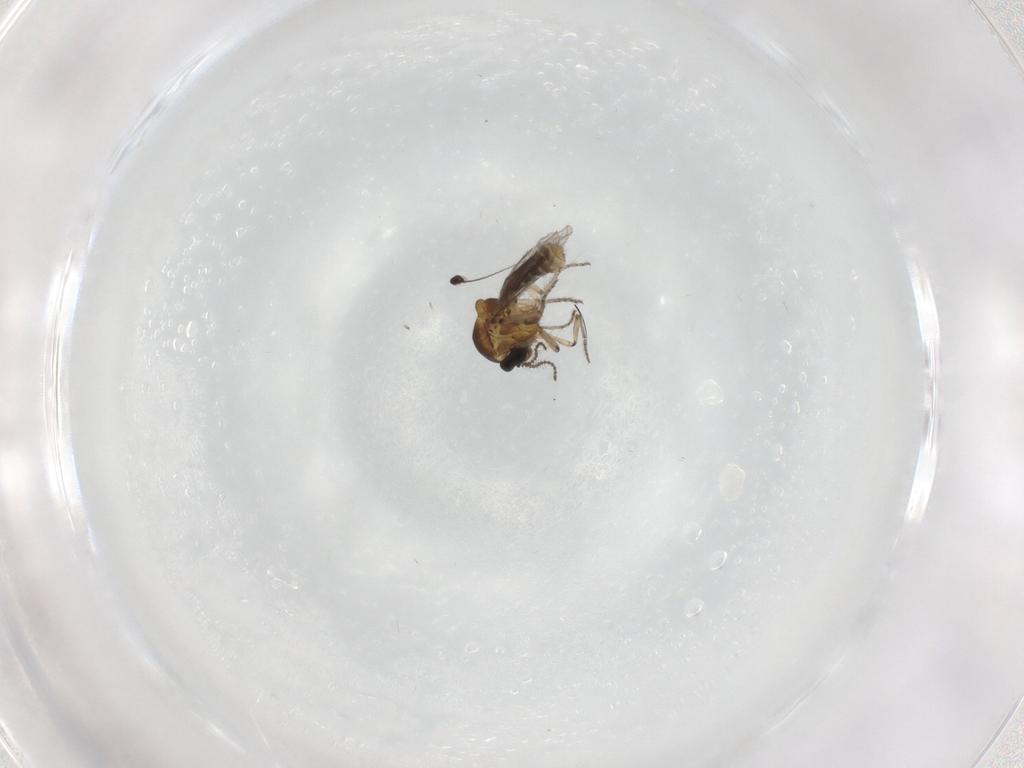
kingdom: Animalia
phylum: Arthropoda
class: Insecta
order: Diptera
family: Ceratopogonidae
